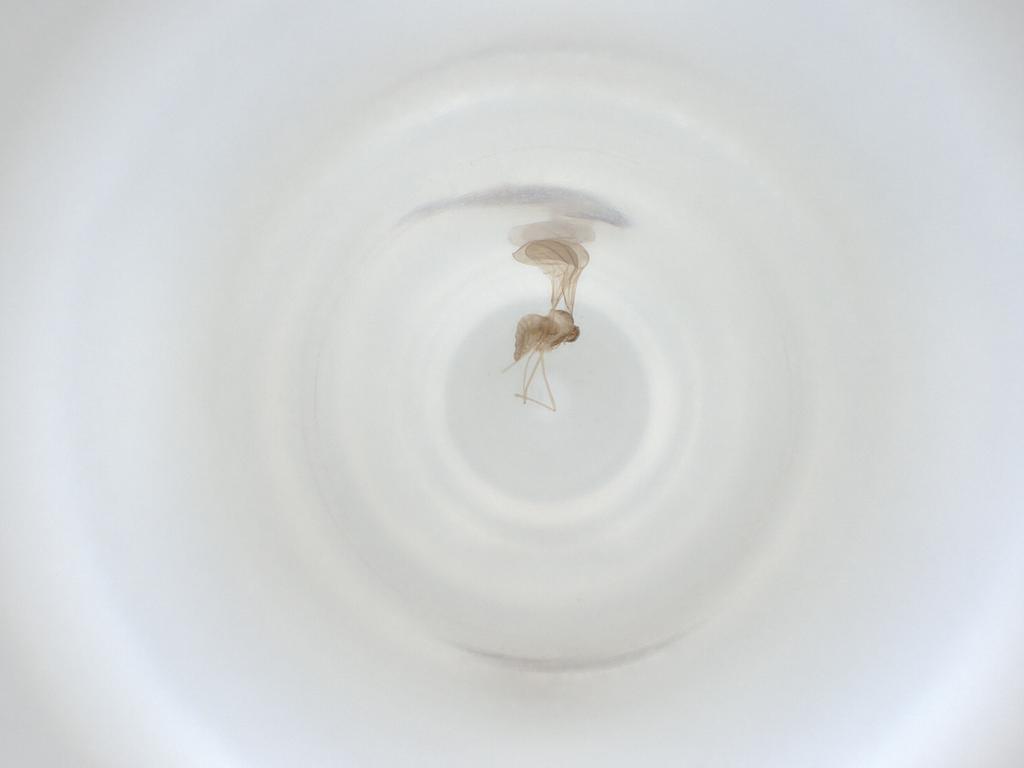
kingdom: Animalia
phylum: Arthropoda
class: Insecta
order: Diptera
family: Cecidomyiidae
